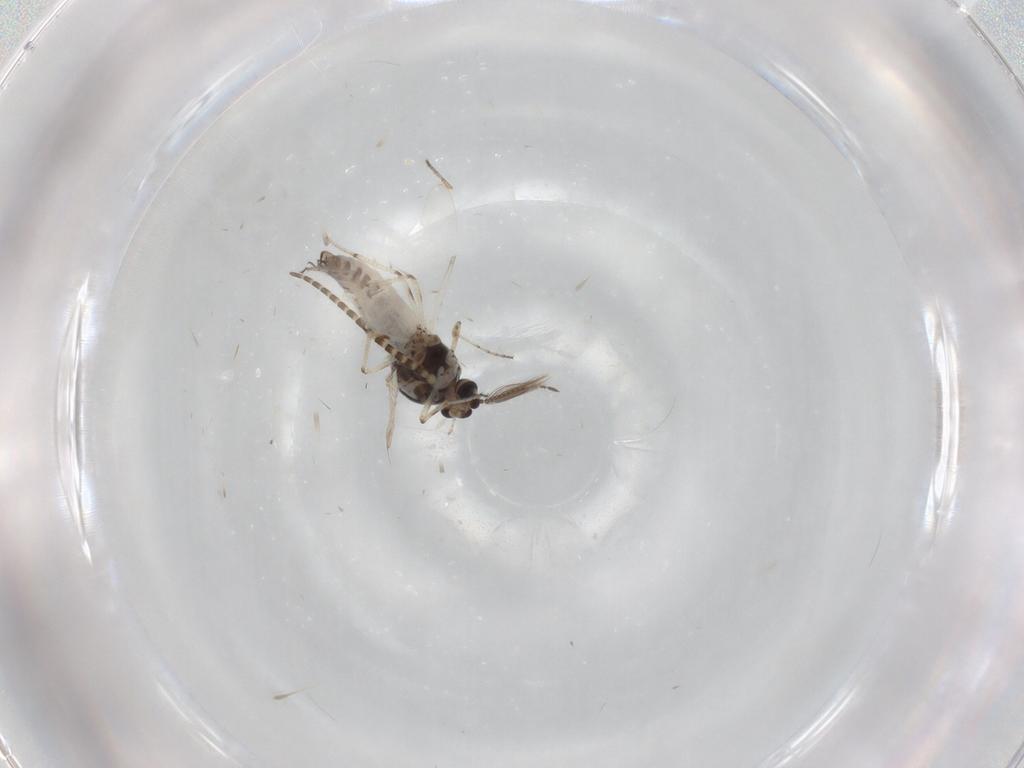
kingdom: Animalia
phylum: Arthropoda
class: Insecta
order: Diptera
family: Ceratopogonidae
